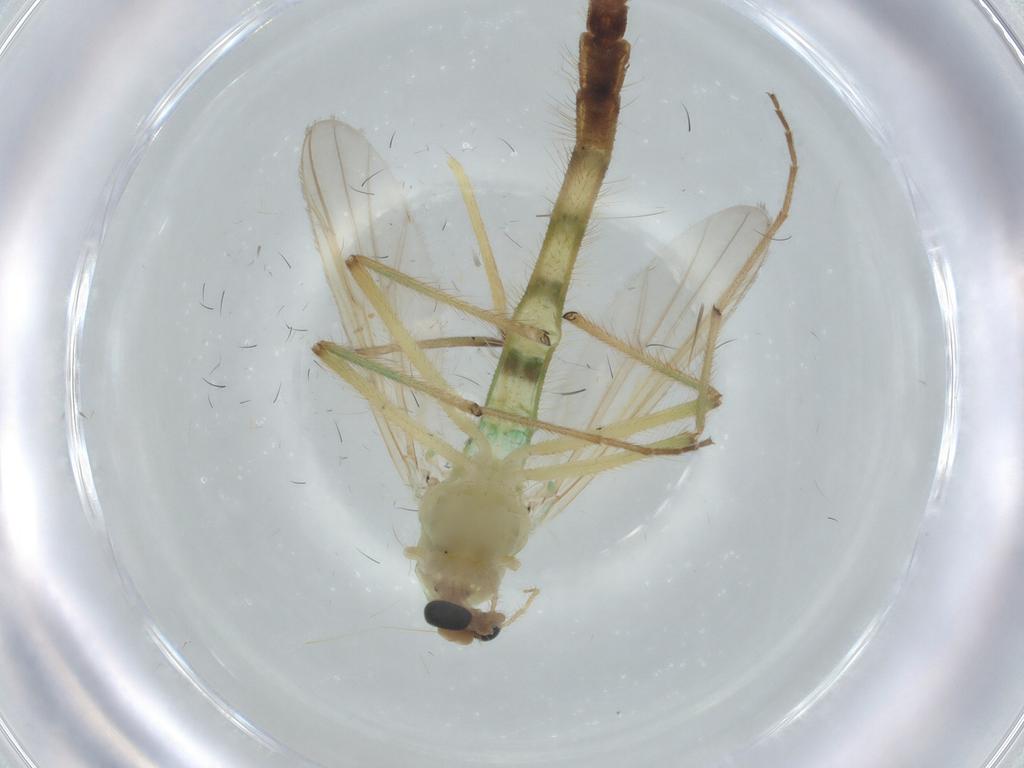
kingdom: Animalia
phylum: Arthropoda
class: Insecta
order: Diptera
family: Chironomidae
